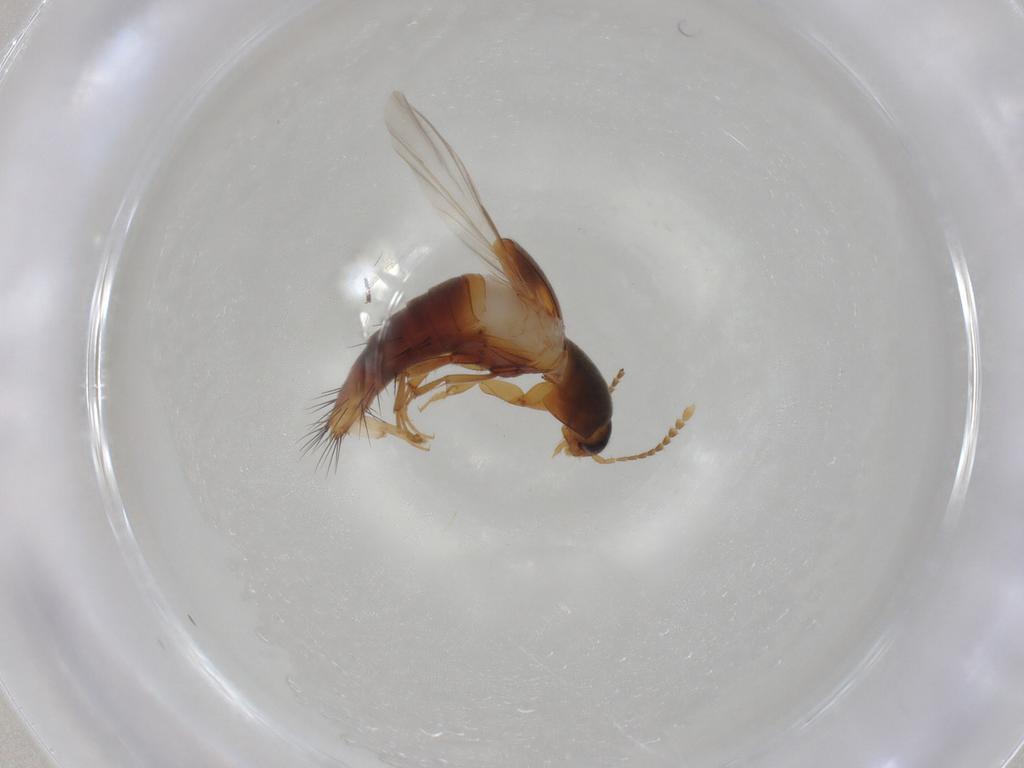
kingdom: Animalia
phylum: Arthropoda
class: Insecta
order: Coleoptera
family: Staphylinidae
